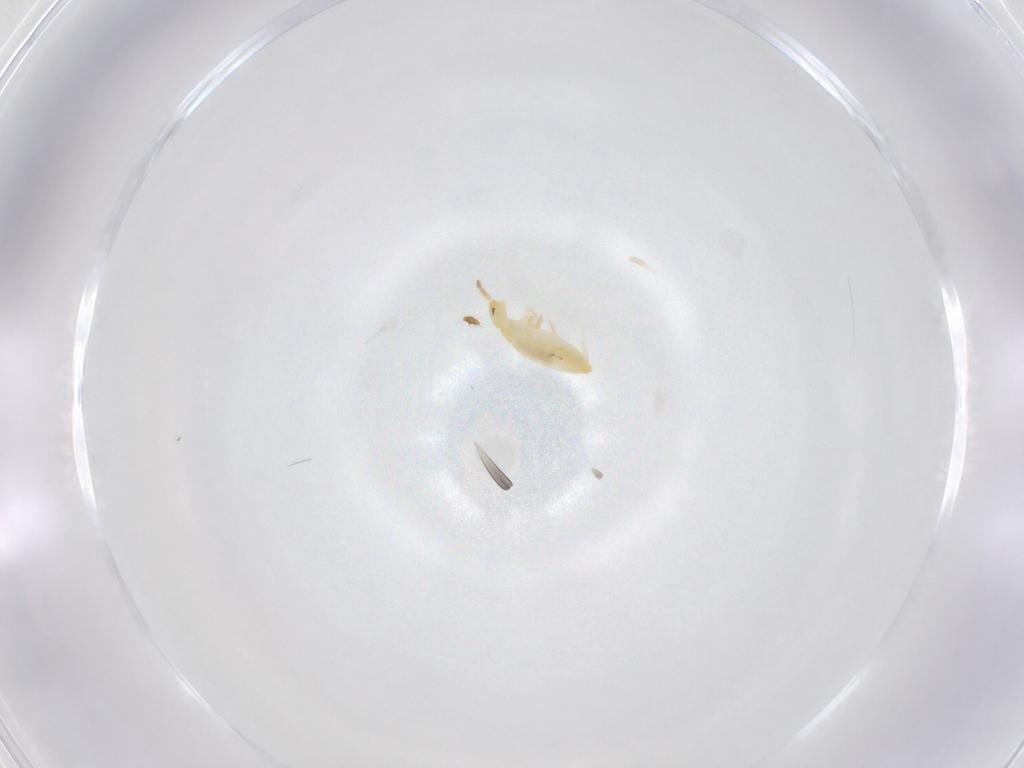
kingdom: Animalia
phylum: Arthropoda
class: Collembola
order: Entomobryomorpha
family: Entomobryidae
